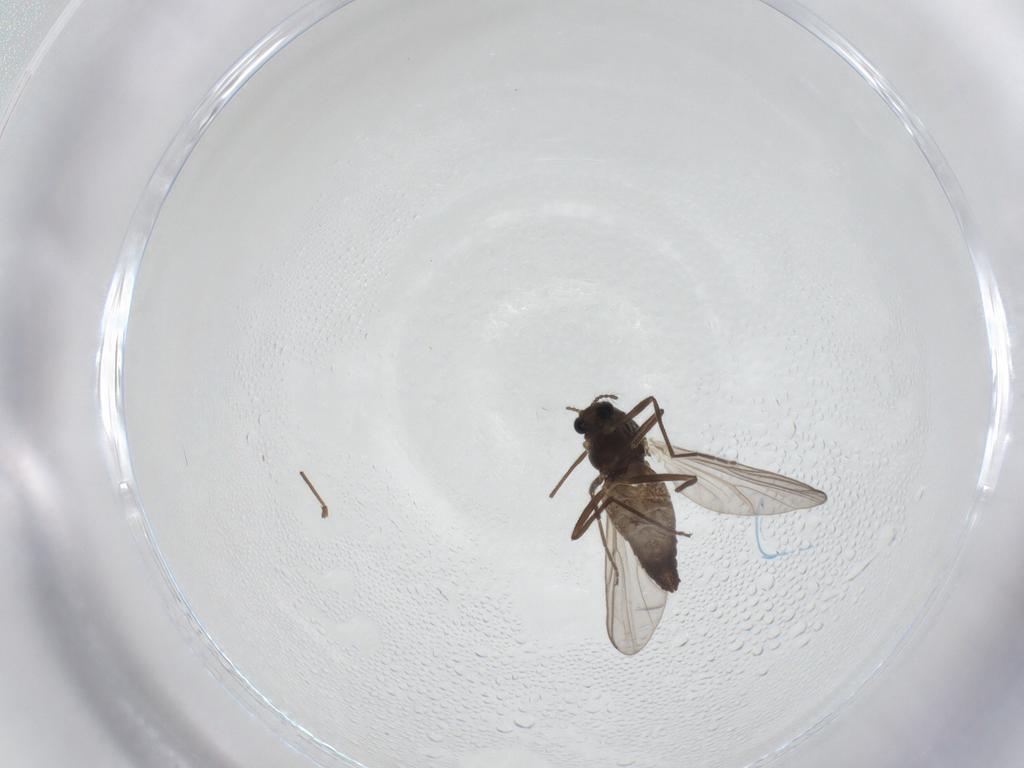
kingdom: Animalia
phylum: Arthropoda
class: Insecta
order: Diptera
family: Chironomidae
